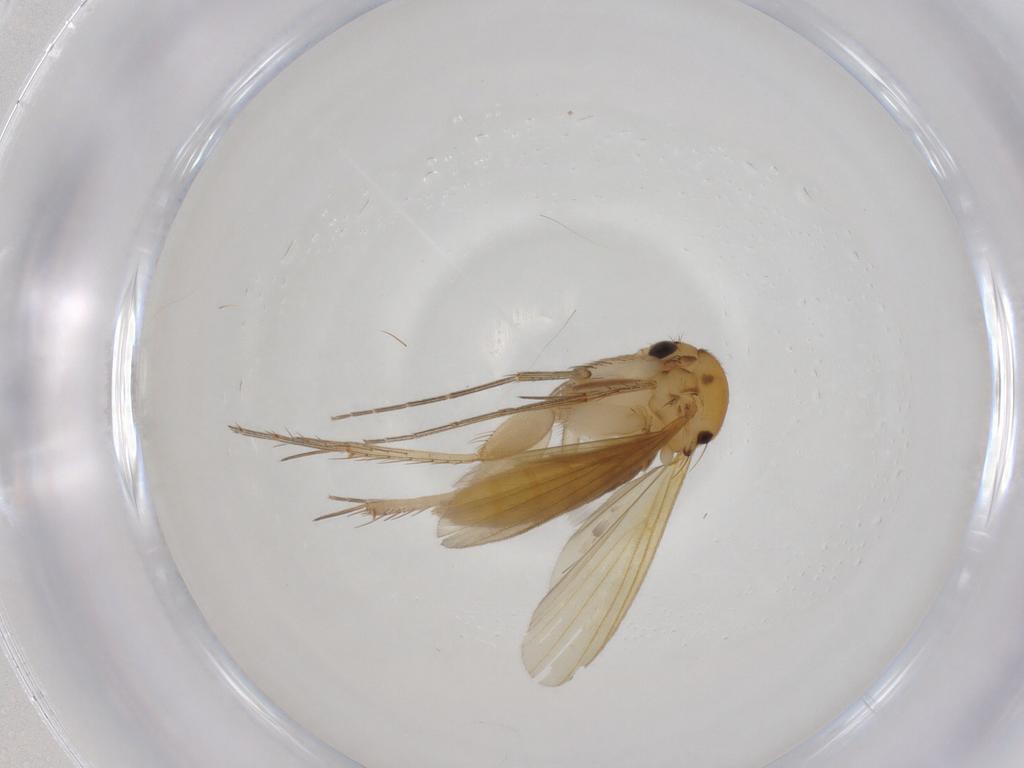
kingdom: Animalia
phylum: Arthropoda
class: Insecta
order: Diptera
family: Mycetophilidae
